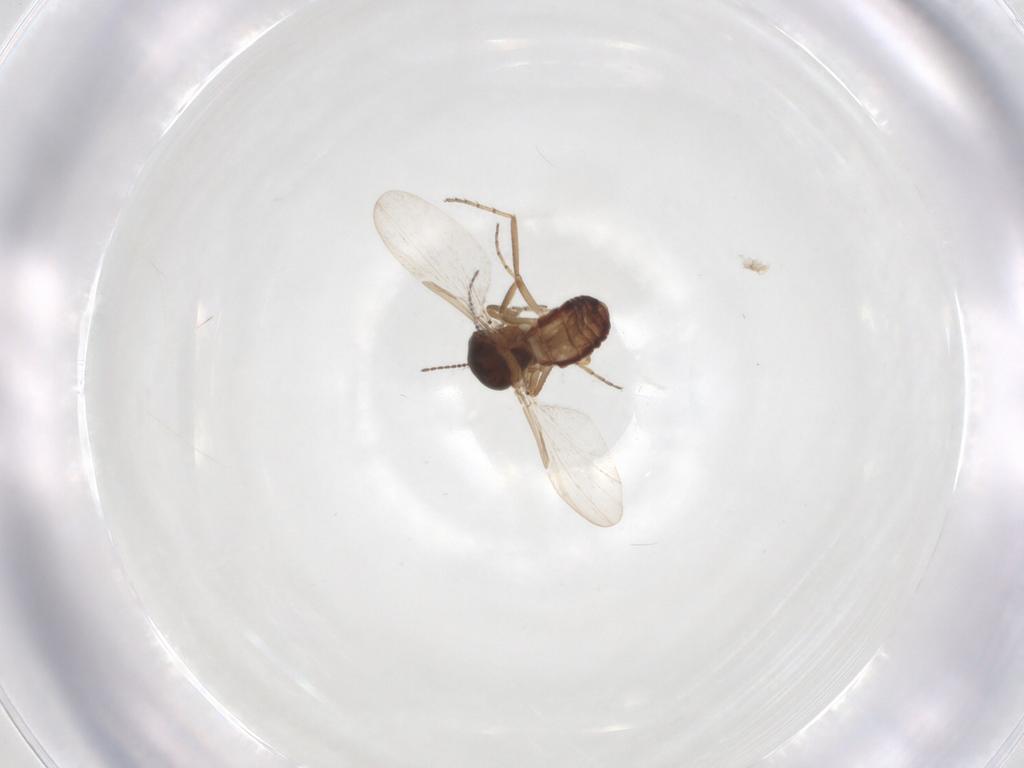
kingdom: Animalia
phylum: Arthropoda
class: Insecta
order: Diptera
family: Ceratopogonidae
